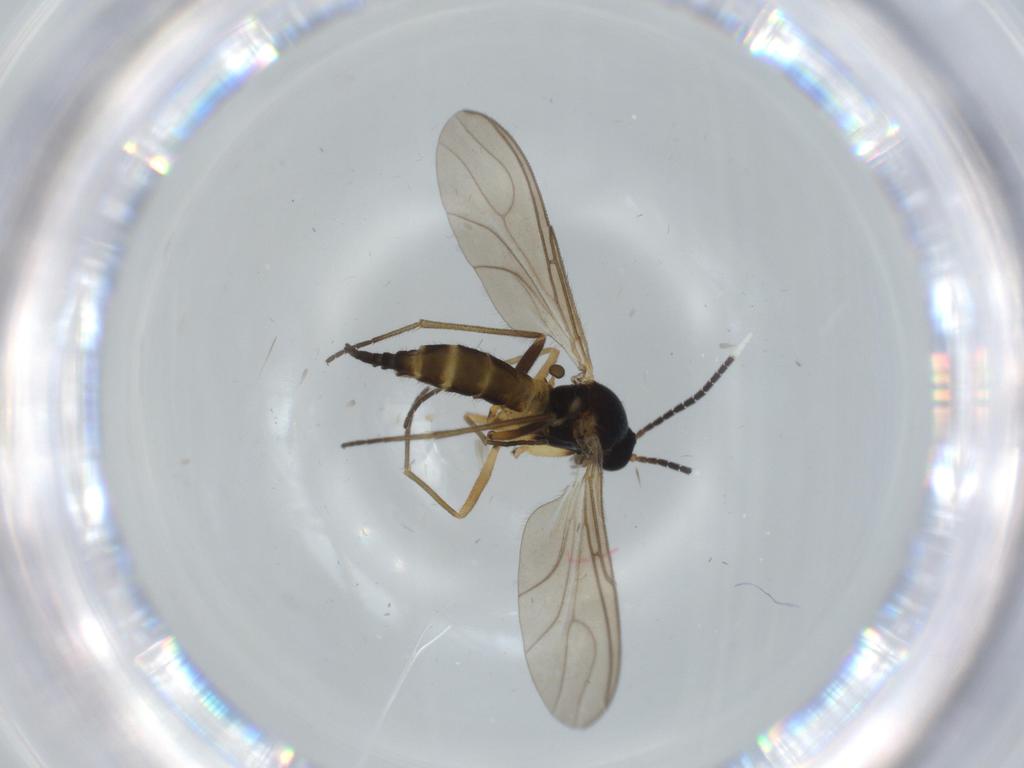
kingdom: Animalia
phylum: Arthropoda
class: Insecta
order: Diptera
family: Sciaridae
